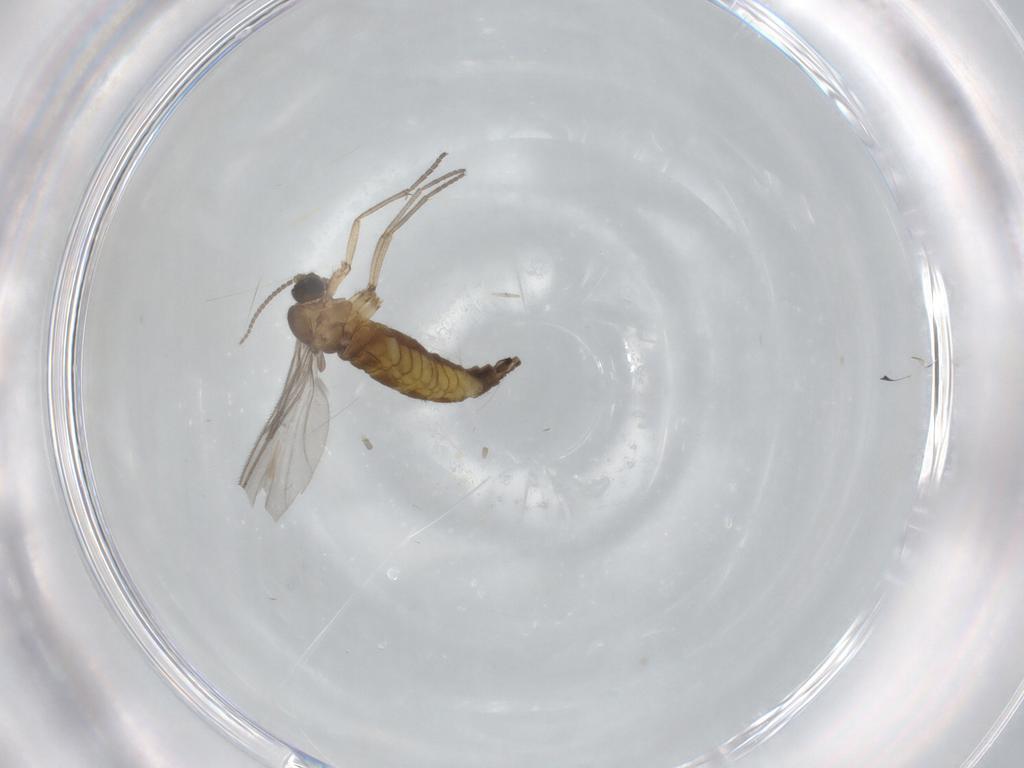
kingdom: Animalia
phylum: Arthropoda
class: Insecta
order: Diptera
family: Sciaridae
